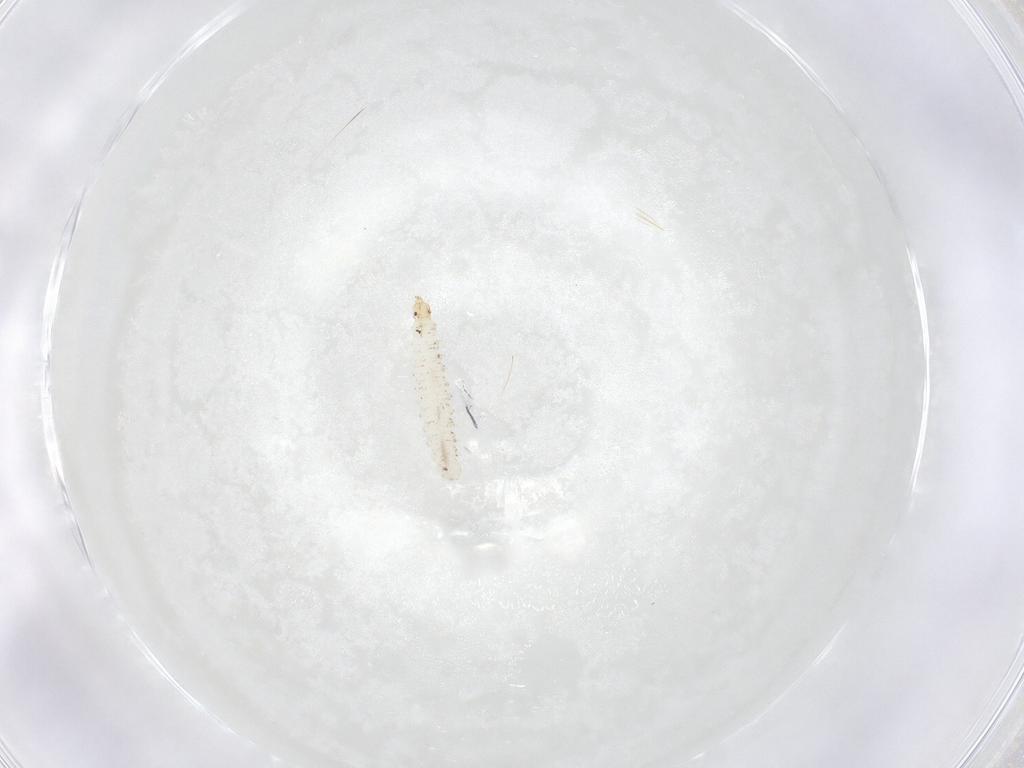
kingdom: Animalia
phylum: Arthropoda
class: Insecta
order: Diptera
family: Stratiomyidae
